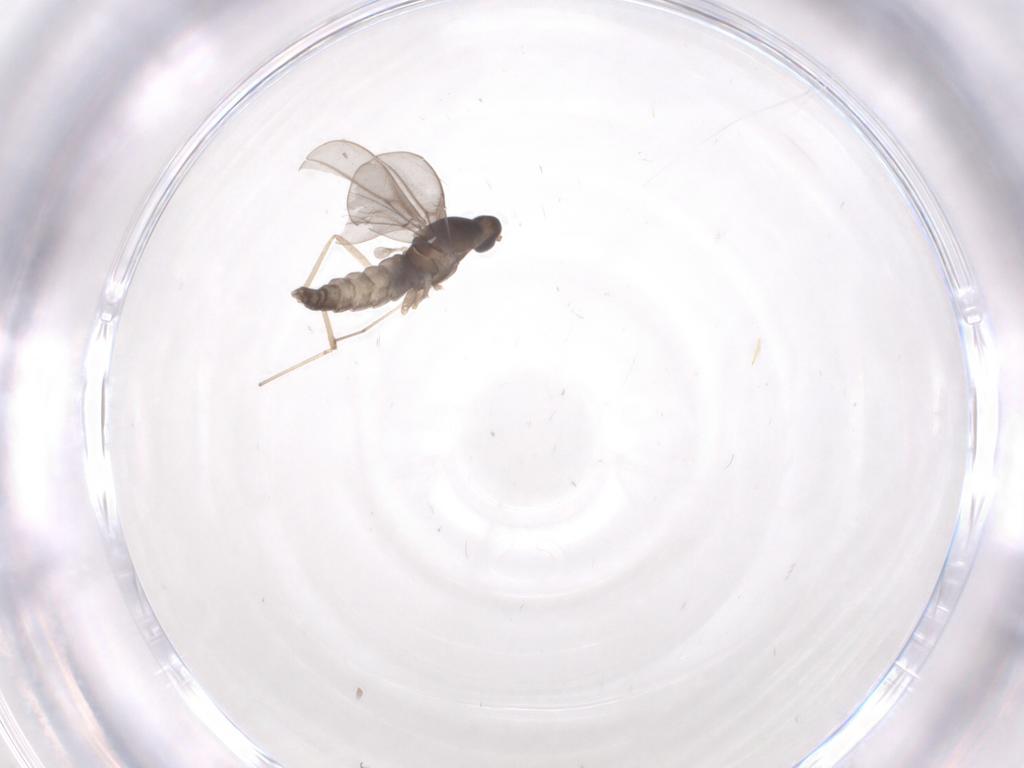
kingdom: Animalia
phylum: Arthropoda
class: Insecta
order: Diptera
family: Cecidomyiidae
